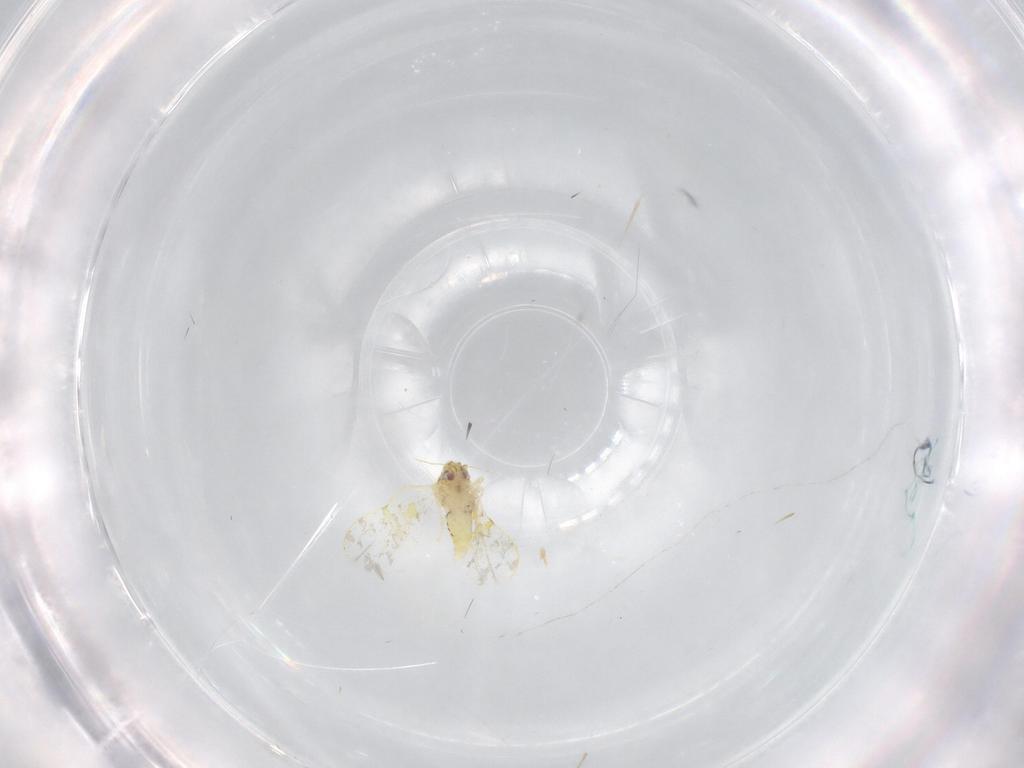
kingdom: Animalia
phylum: Arthropoda
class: Insecta
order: Hemiptera
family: Aleyrodidae
